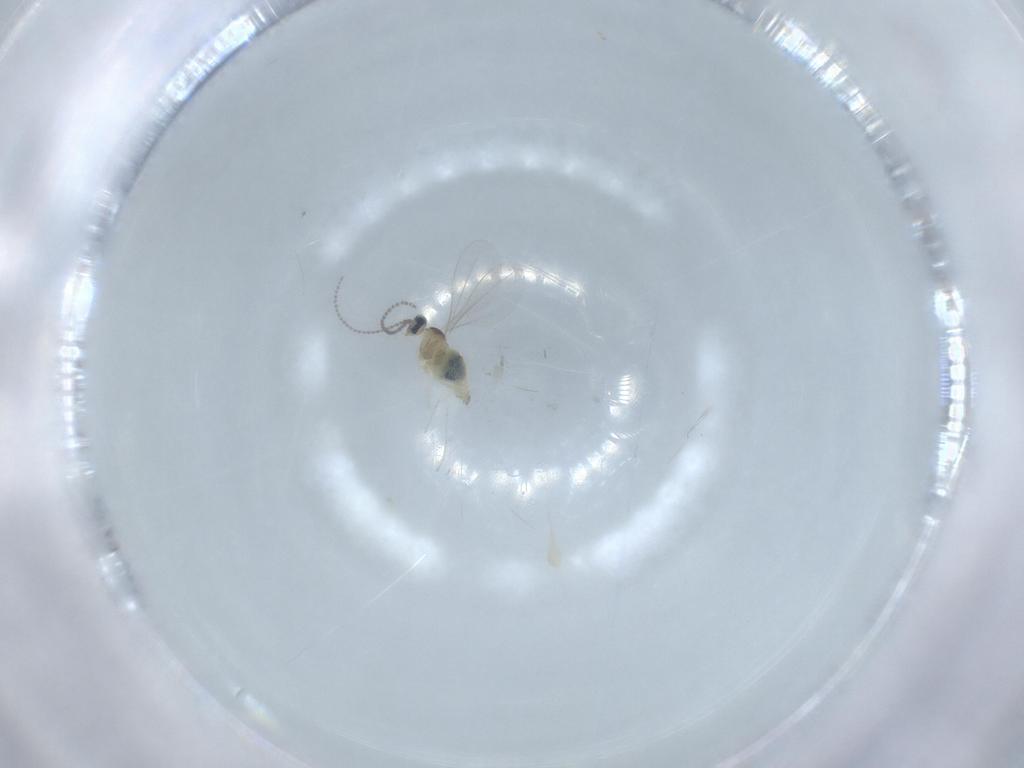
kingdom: Animalia
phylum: Arthropoda
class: Insecta
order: Diptera
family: Cecidomyiidae
